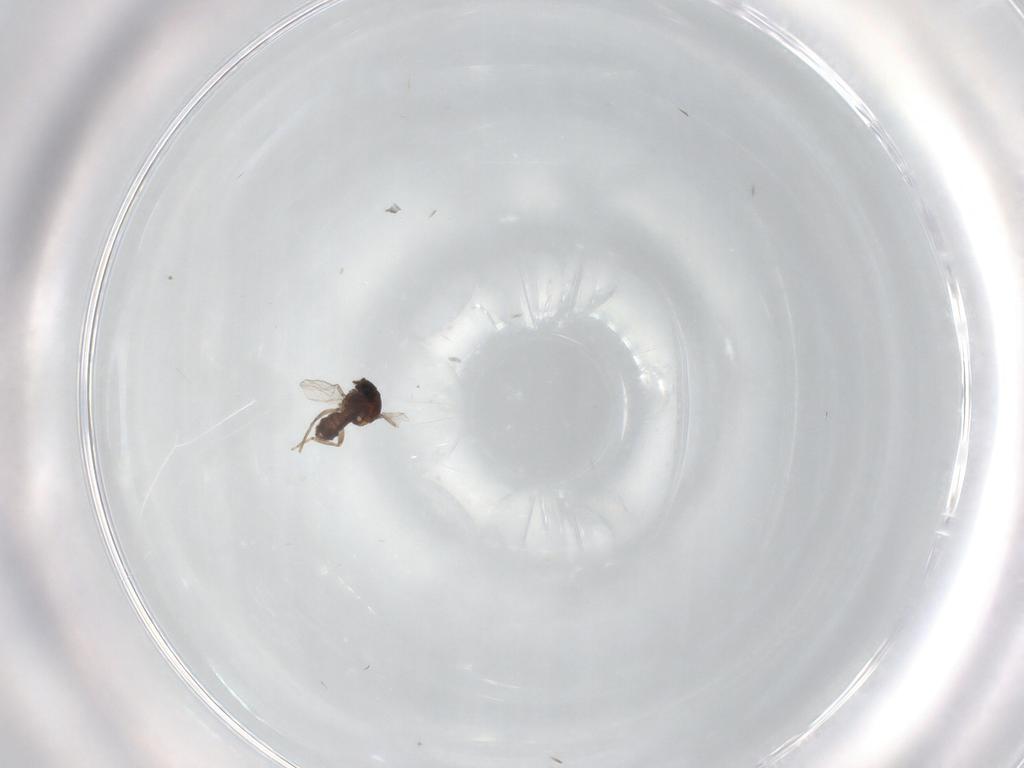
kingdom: Animalia
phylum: Arthropoda
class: Insecta
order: Diptera
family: Chironomidae
